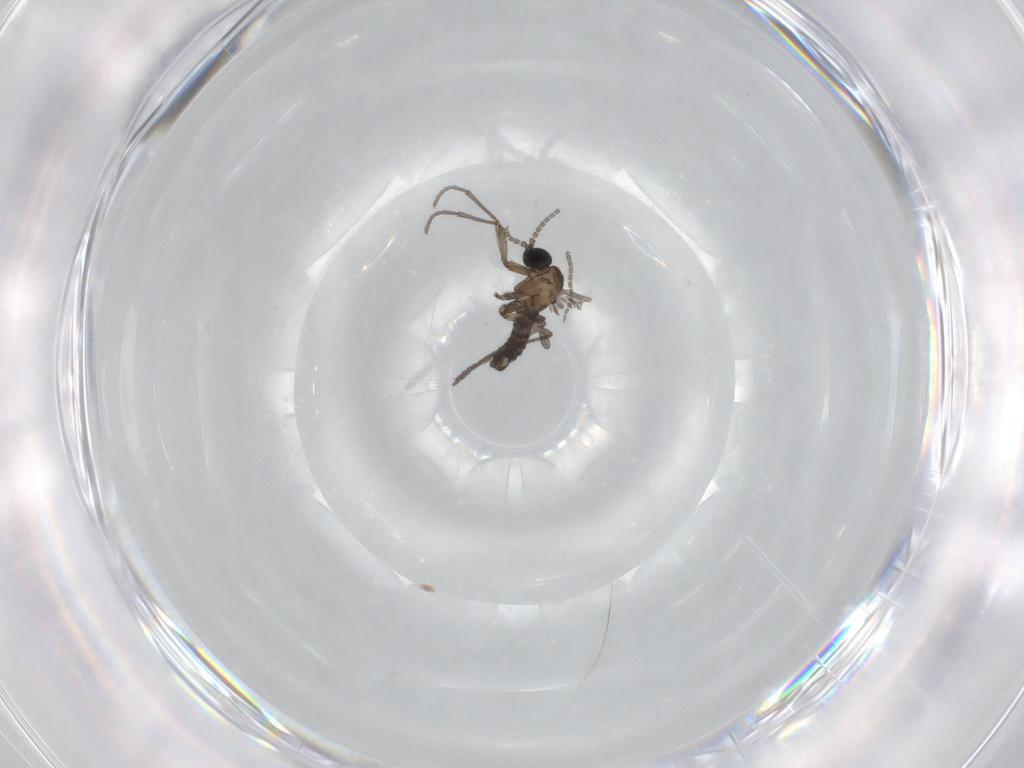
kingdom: Animalia
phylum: Arthropoda
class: Insecta
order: Diptera
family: Sciaridae
